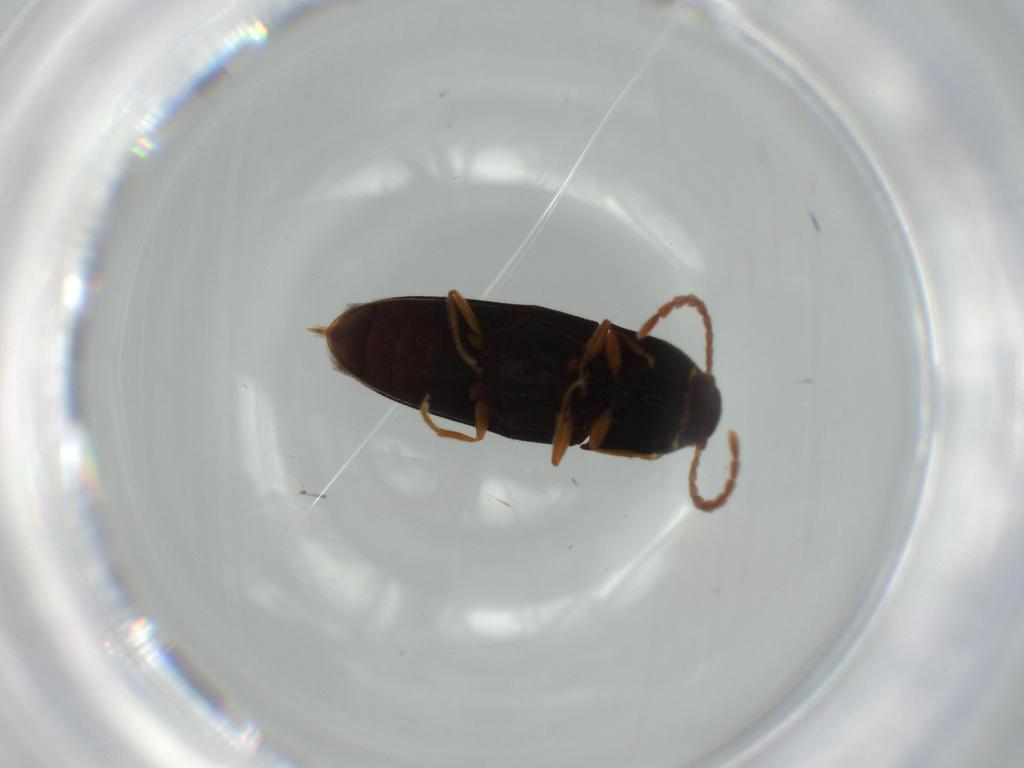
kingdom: Animalia
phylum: Arthropoda
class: Insecta
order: Coleoptera
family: Elateridae
